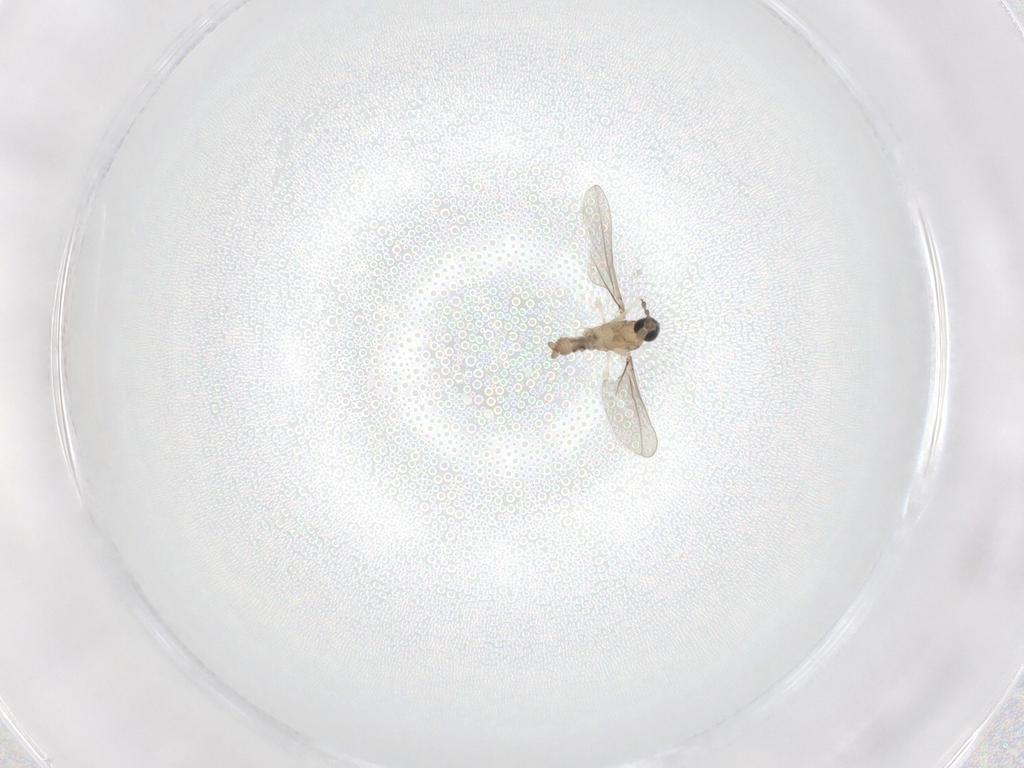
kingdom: Animalia
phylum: Arthropoda
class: Insecta
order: Diptera
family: Cecidomyiidae
